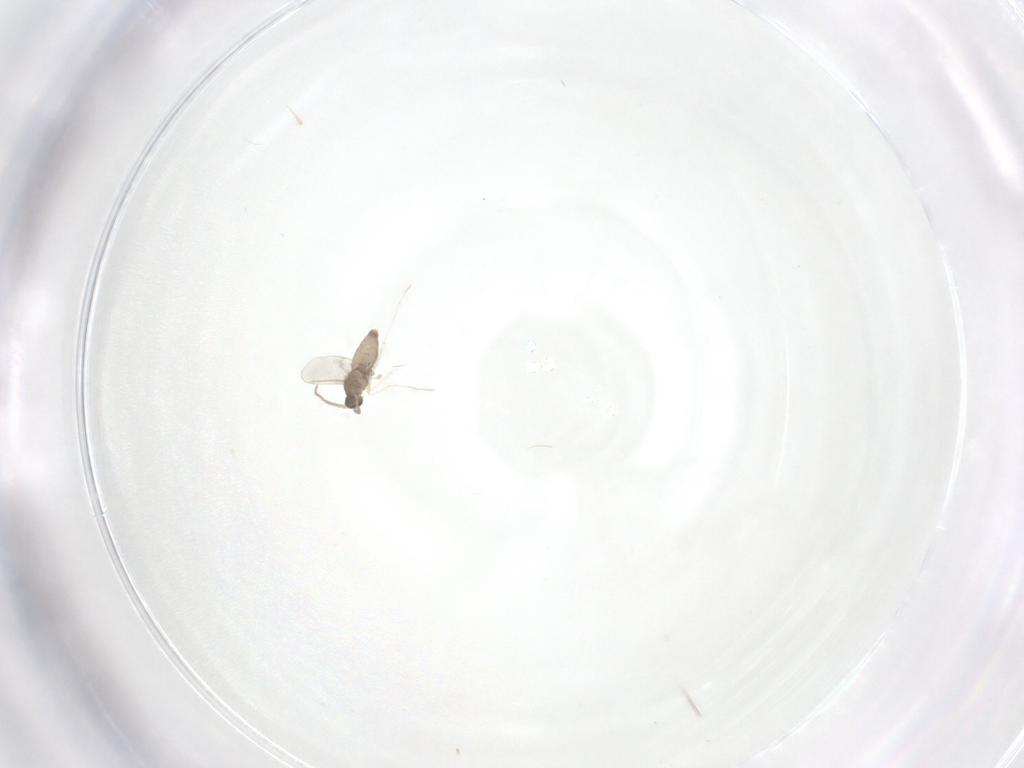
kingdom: Animalia
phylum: Arthropoda
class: Insecta
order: Diptera
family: Cecidomyiidae
